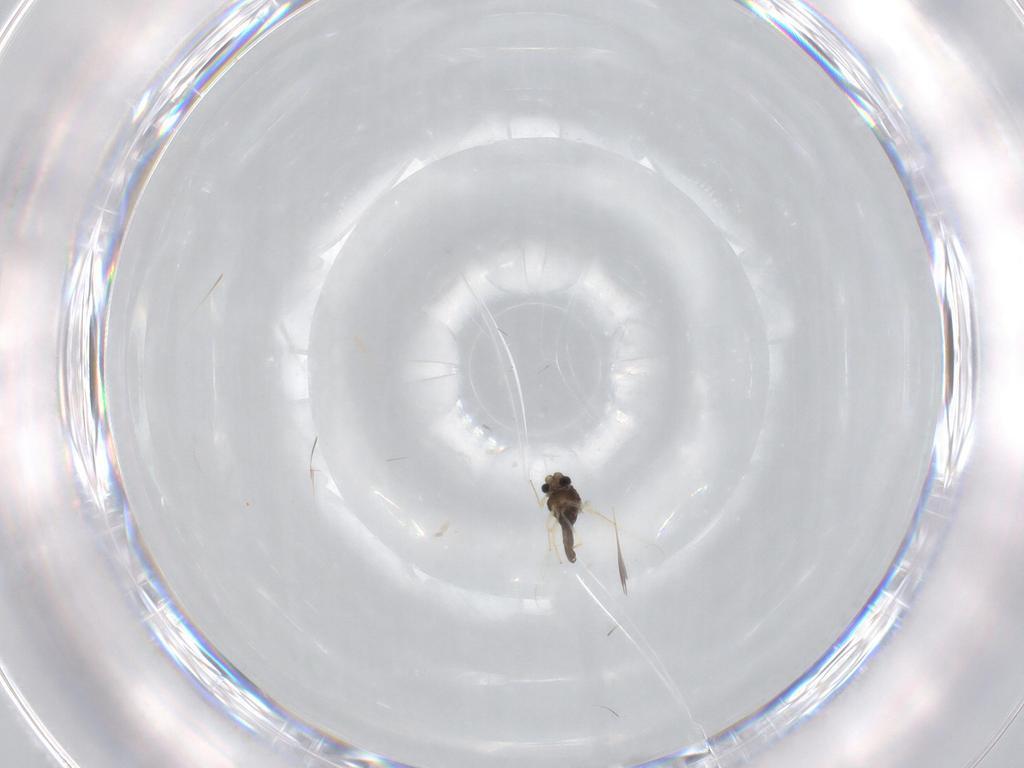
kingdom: Animalia
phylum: Arthropoda
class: Insecta
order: Diptera
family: Chironomidae
